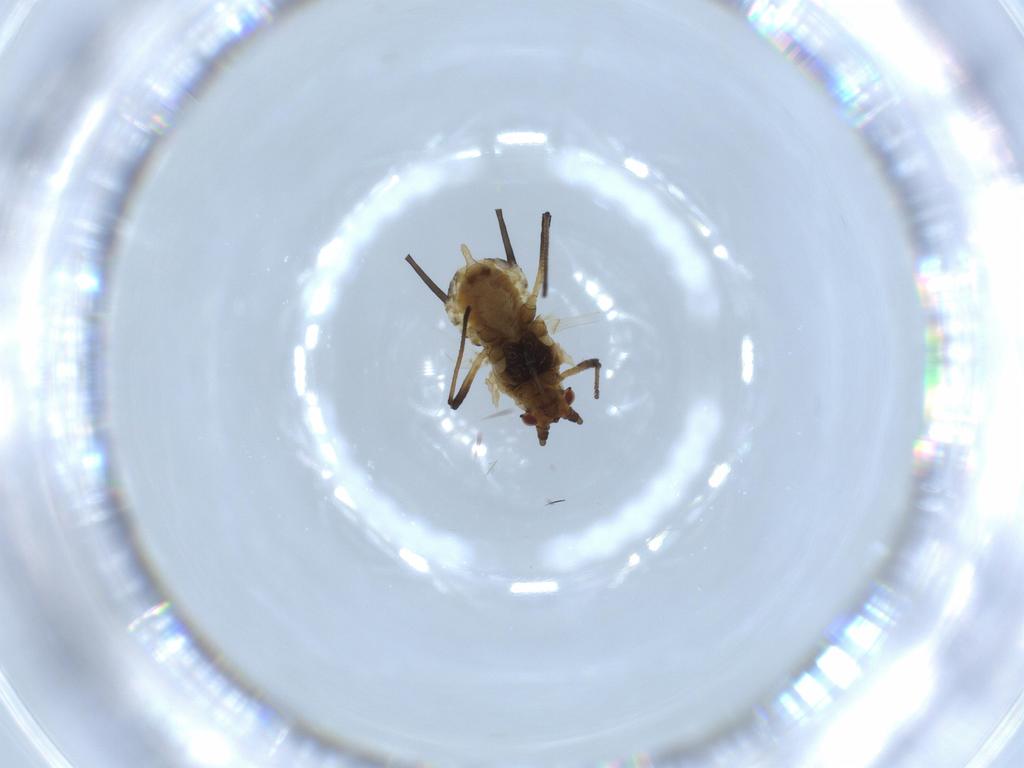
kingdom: Animalia
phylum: Arthropoda
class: Insecta
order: Hemiptera
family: Aphididae
